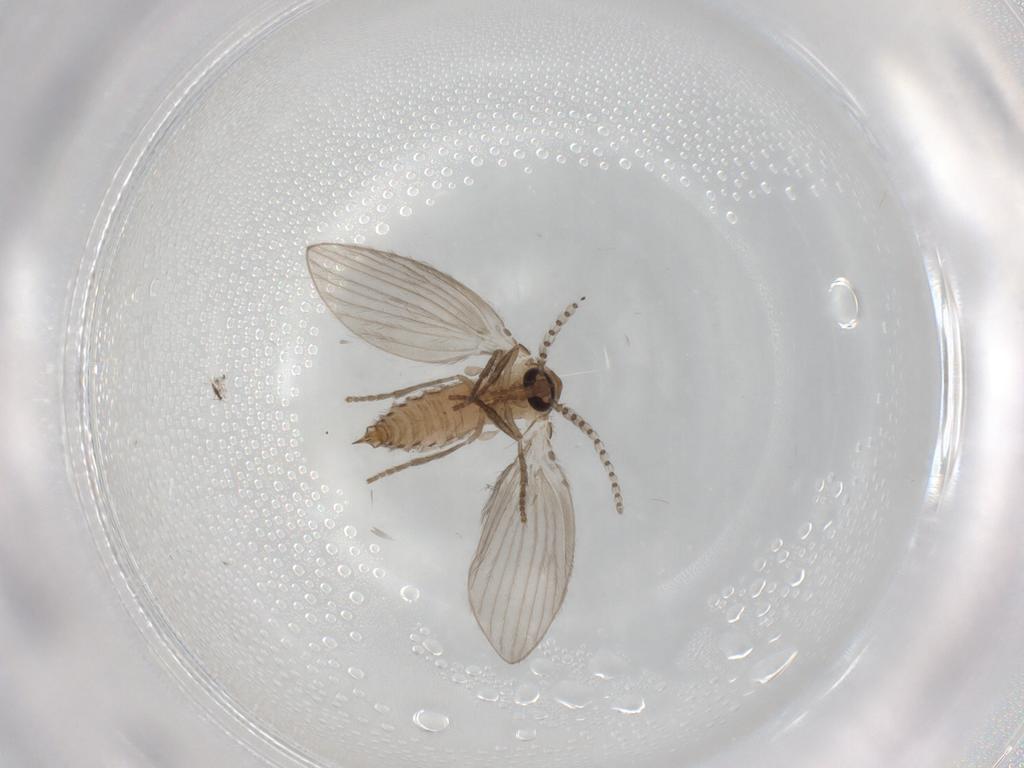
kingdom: Animalia
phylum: Arthropoda
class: Insecta
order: Diptera
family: Psychodidae
